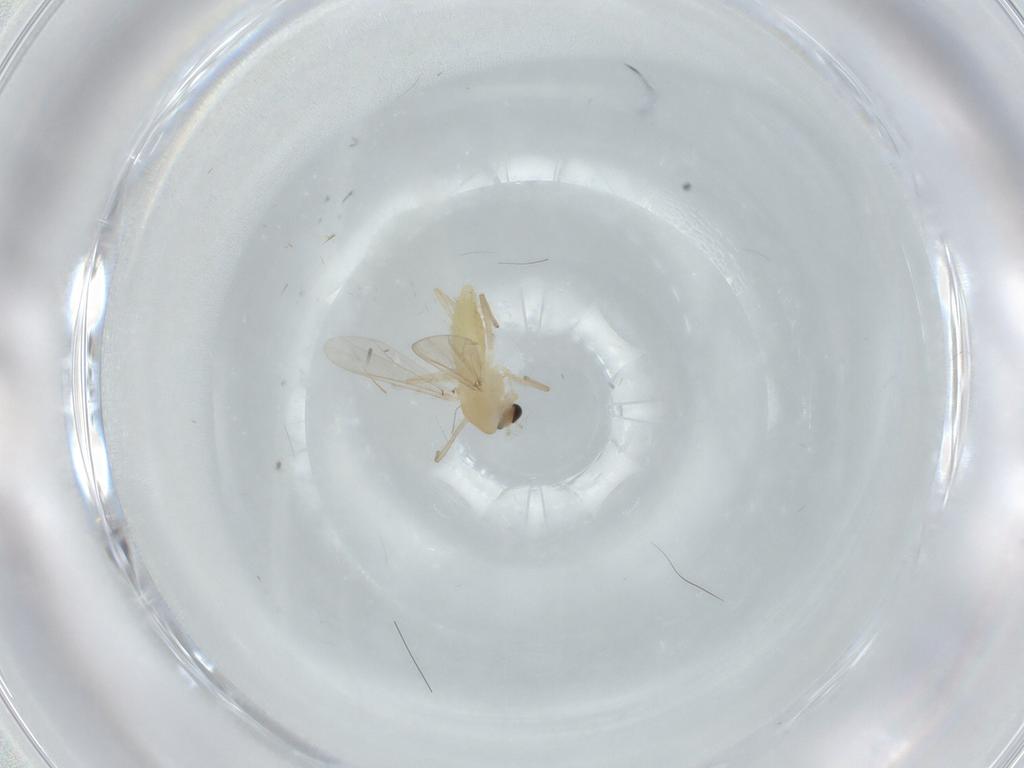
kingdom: Animalia
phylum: Arthropoda
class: Insecta
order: Diptera
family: Chironomidae
